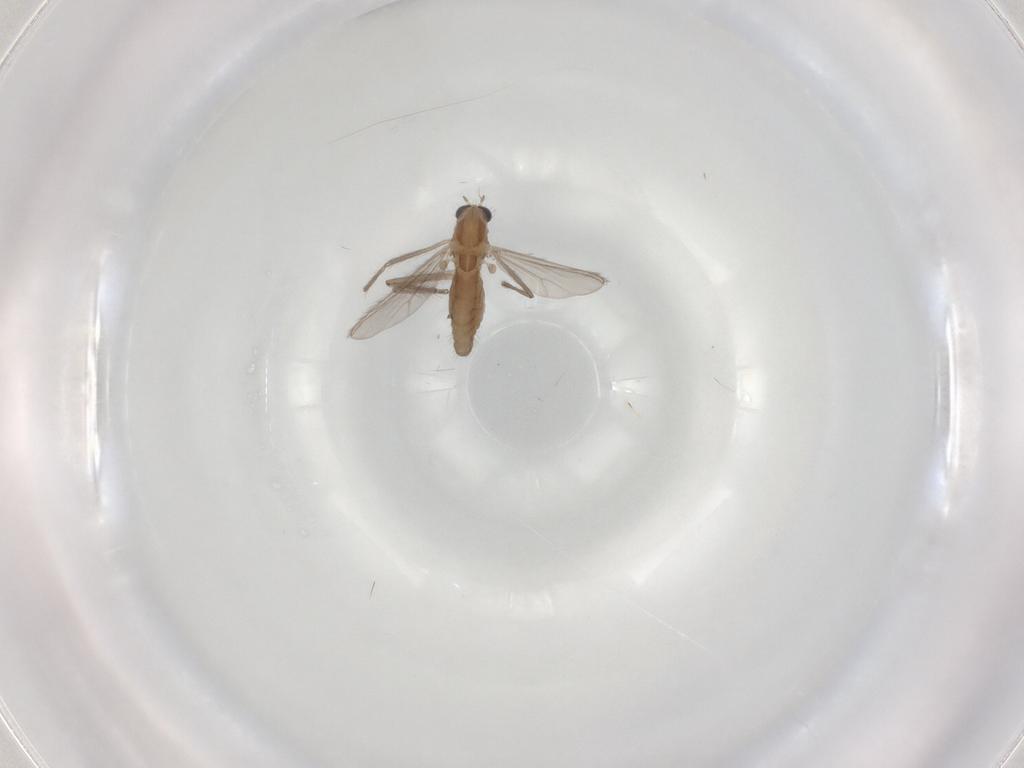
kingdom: Animalia
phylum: Arthropoda
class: Insecta
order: Diptera
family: Chironomidae
